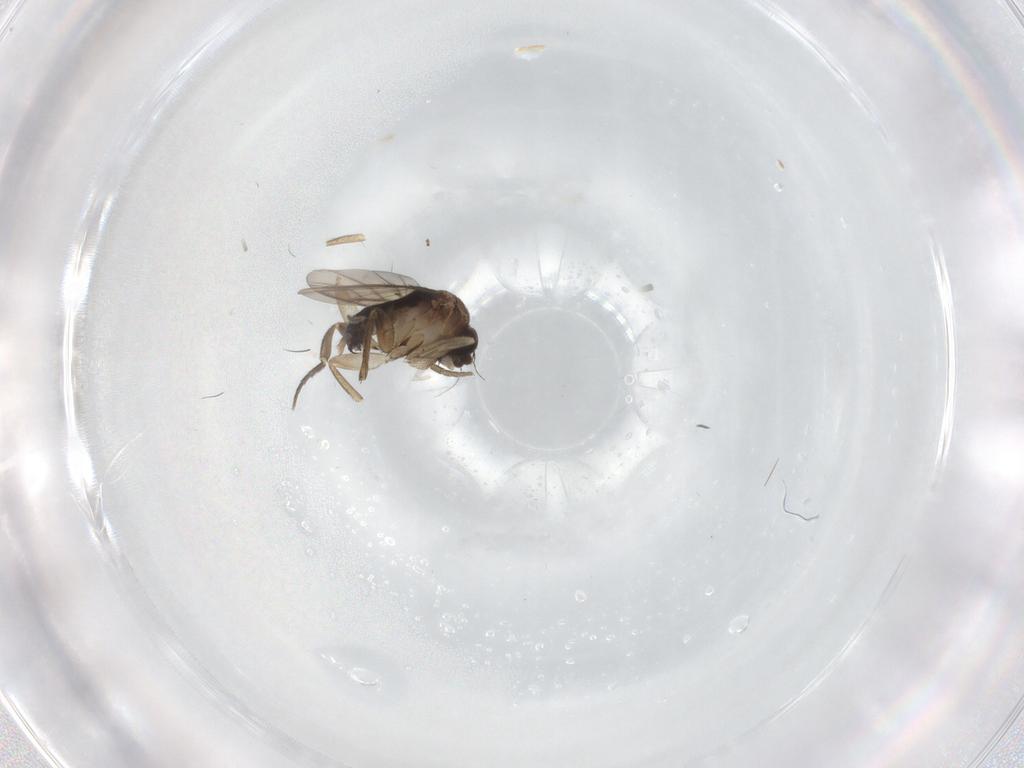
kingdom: Animalia
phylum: Arthropoda
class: Insecta
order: Diptera
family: Phoridae
